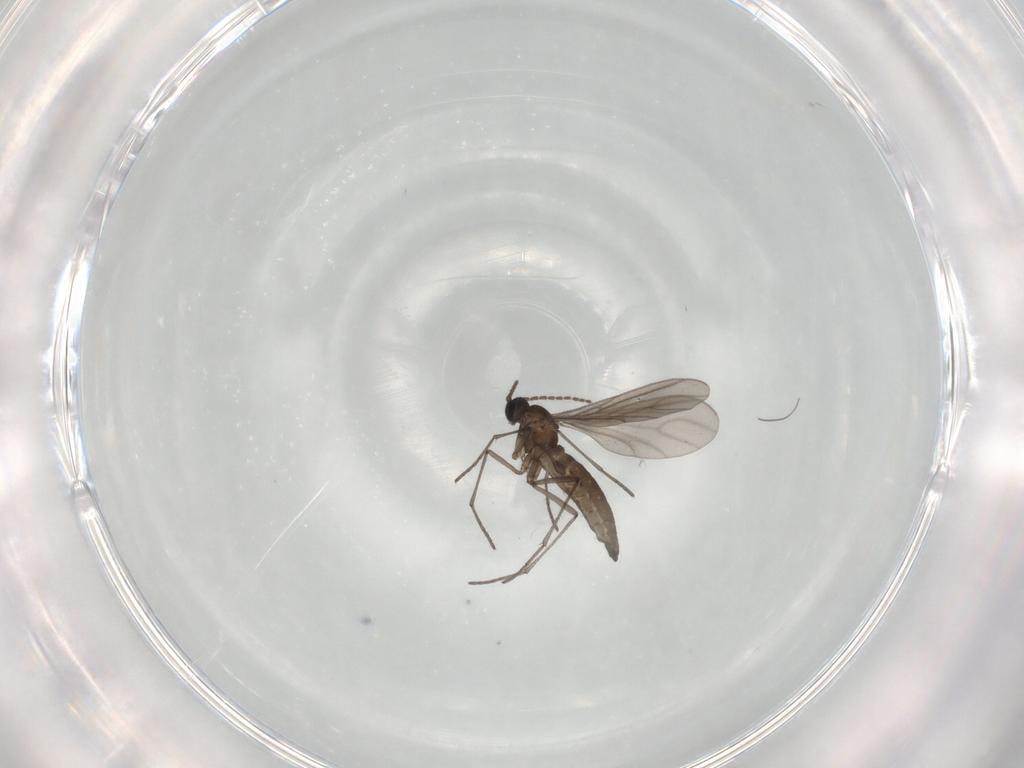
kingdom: Animalia
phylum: Arthropoda
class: Insecta
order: Diptera
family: Sciaridae
